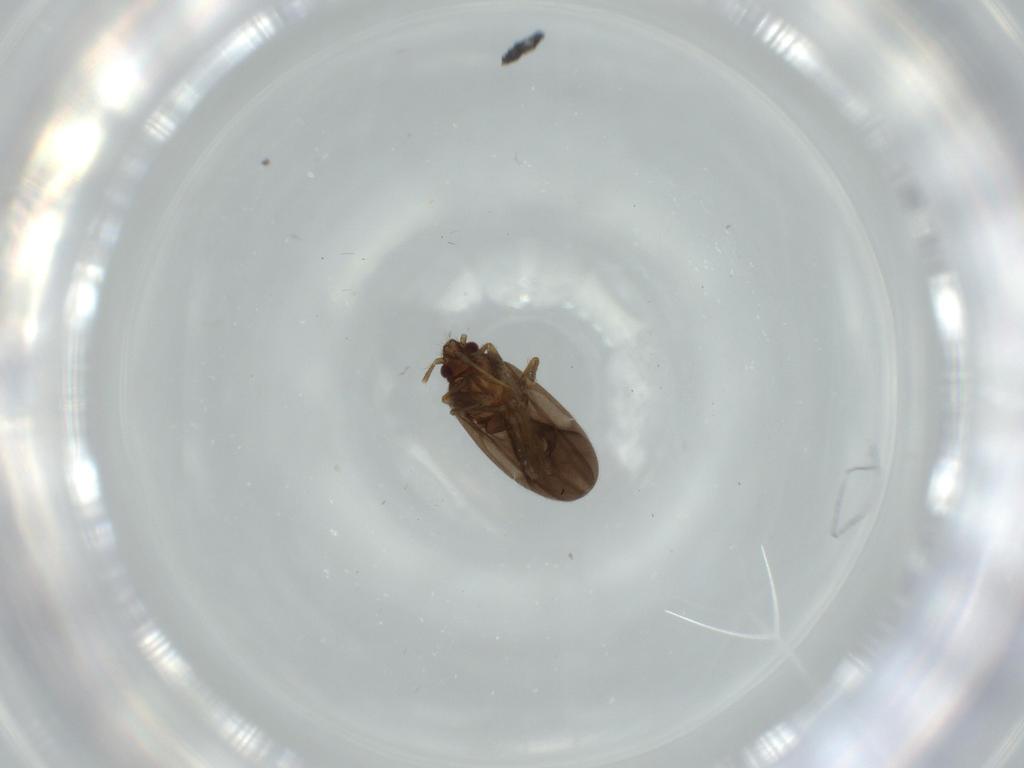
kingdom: Animalia
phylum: Arthropoda
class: Insecta
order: Hemiptera
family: Ceratocombidae
